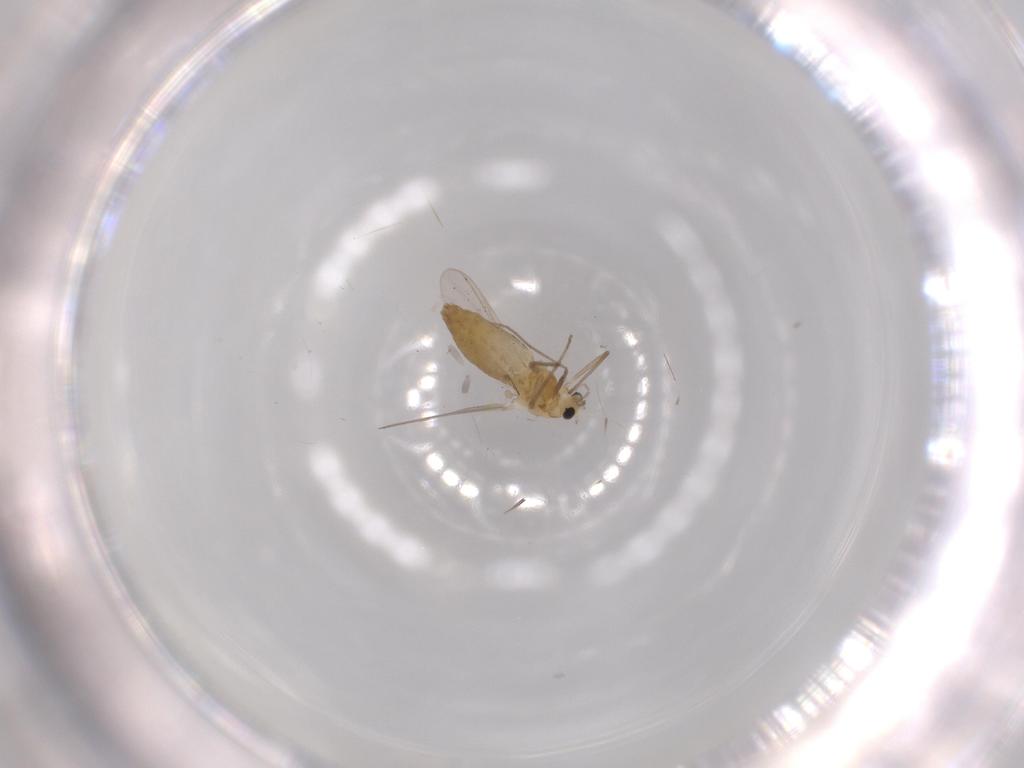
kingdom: Animalia
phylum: Arthropoda
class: Insecta
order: Diptera
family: Chironomidae
